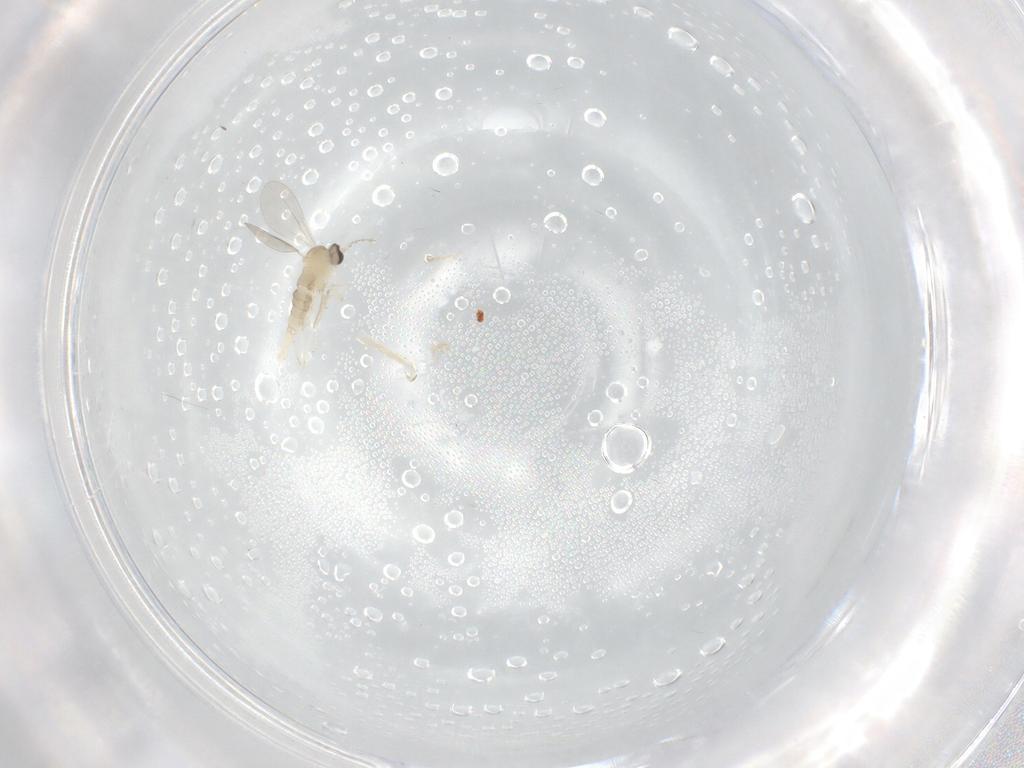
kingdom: Animalia
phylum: Arthropoda
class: Insecta
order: Diptera
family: Cecidomyiidae
